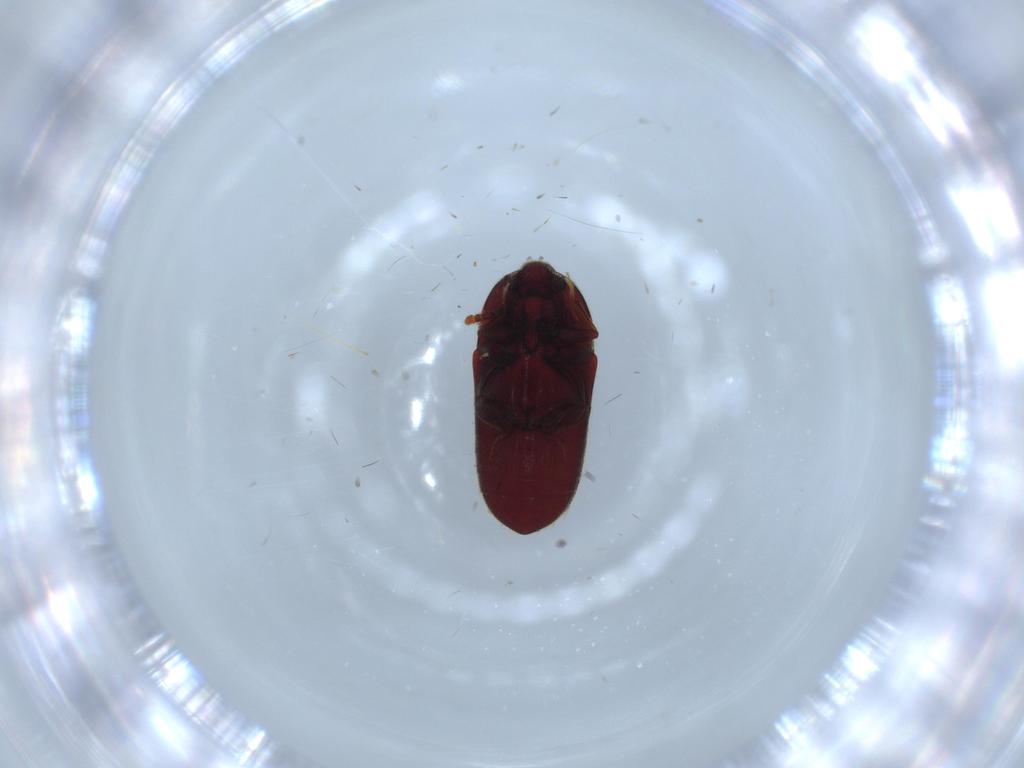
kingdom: Animalia
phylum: Arthropoda
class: Insecta
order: Coleoptera
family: Throscidae
